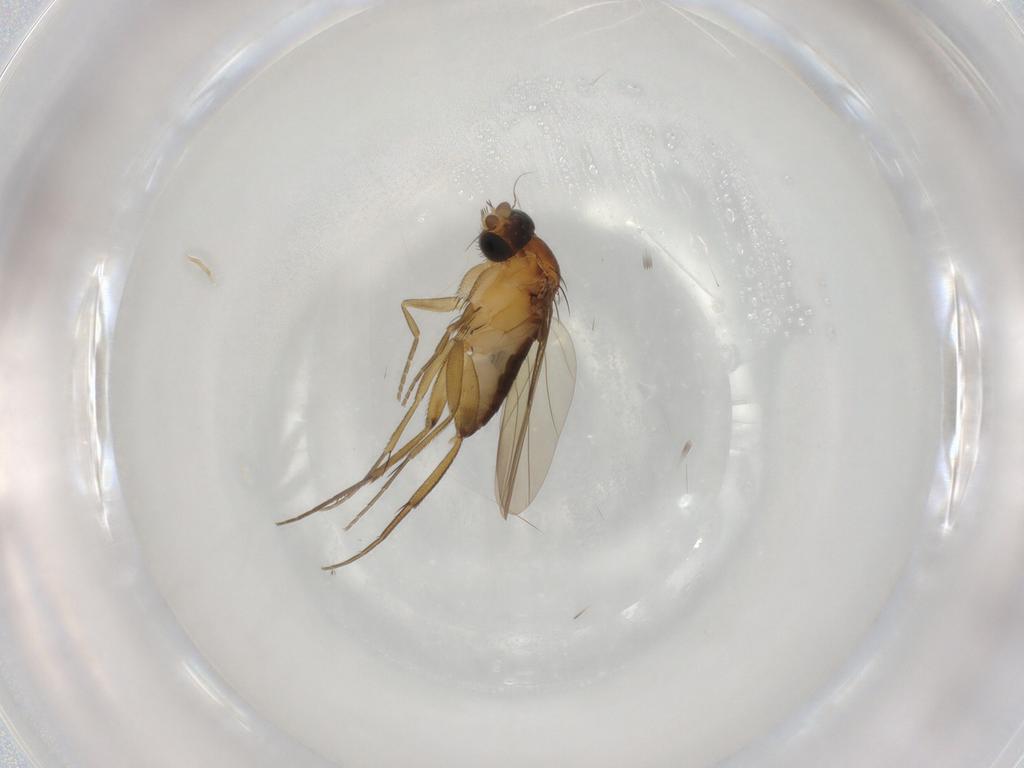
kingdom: Animalia
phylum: Arthropoda
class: Insecta
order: Diptera
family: Phoridae
